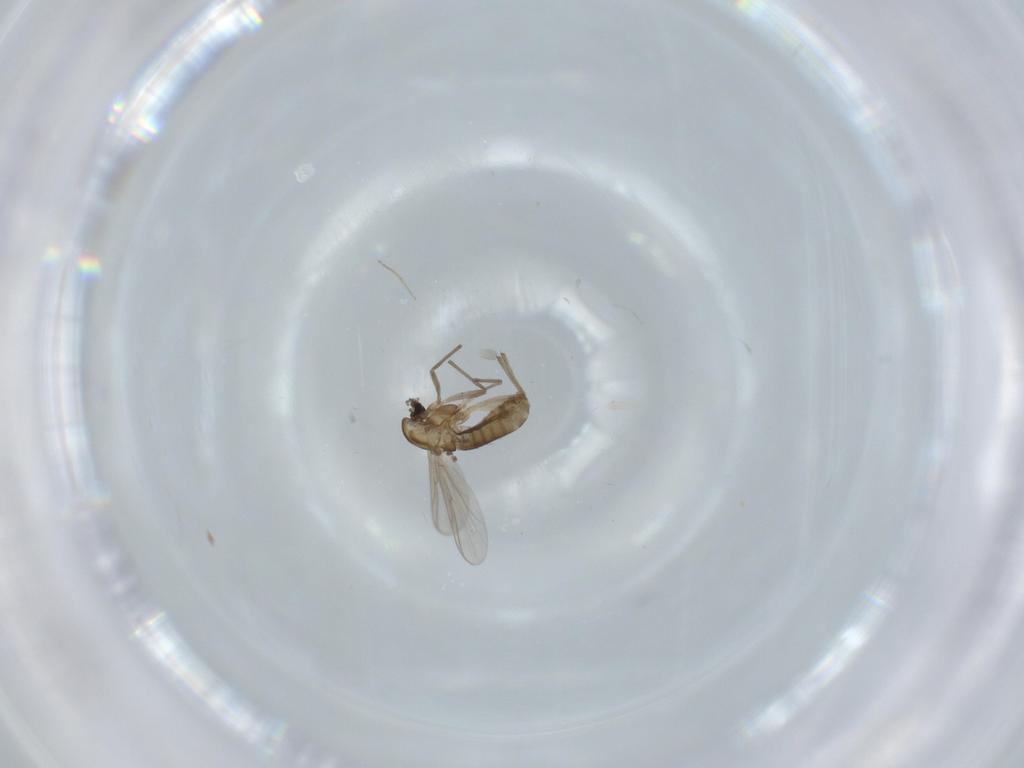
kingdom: Animalia
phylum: Arthropoda
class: Insecta
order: Diptera
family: Chironomidae
